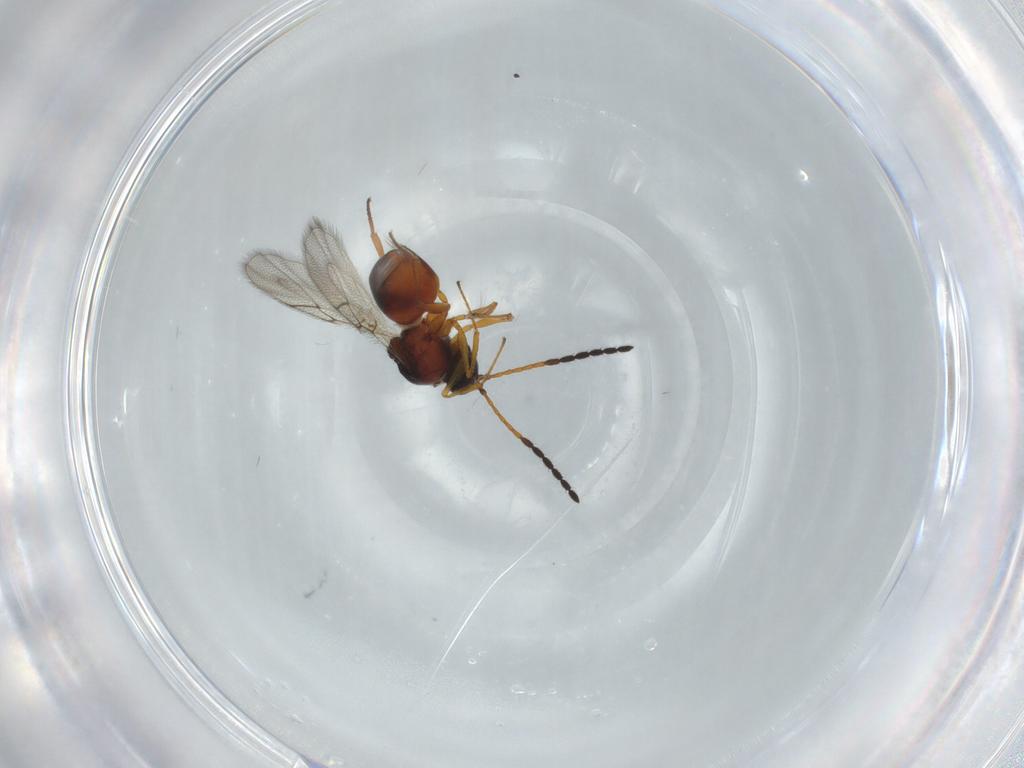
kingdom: Animalia
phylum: Arthropoda
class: Insecta
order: Hymenoptera
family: Figitidae
